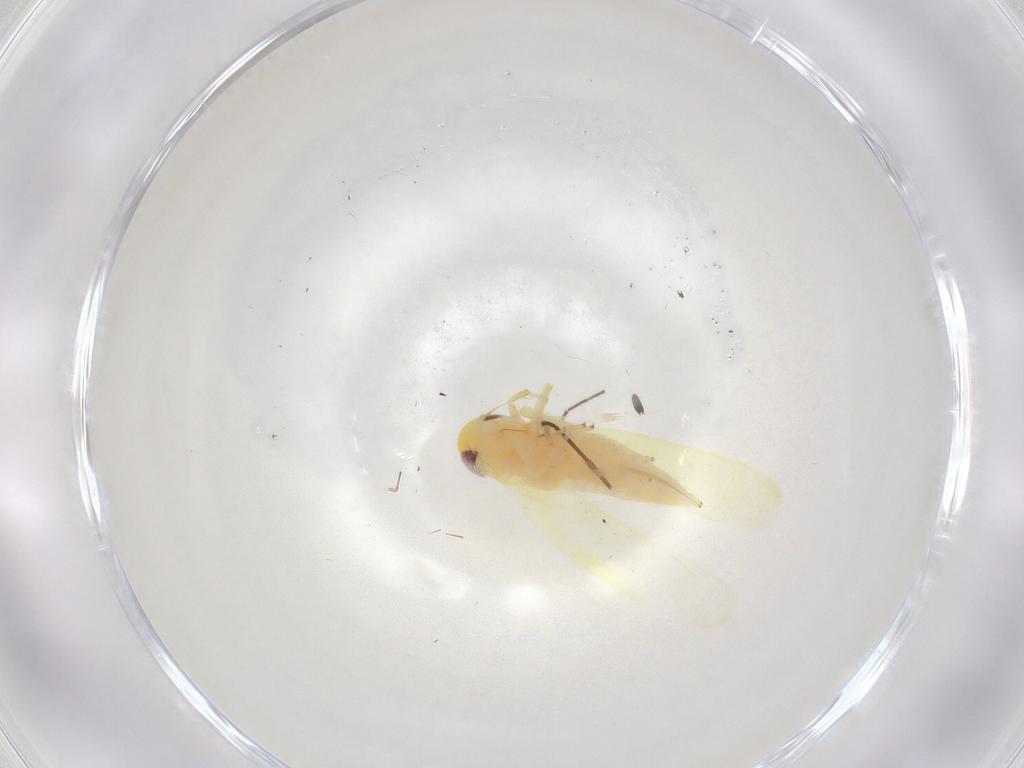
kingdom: Animalia
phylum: Arthropoda
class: Insecta
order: Hemiptera
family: Cicadellidae
